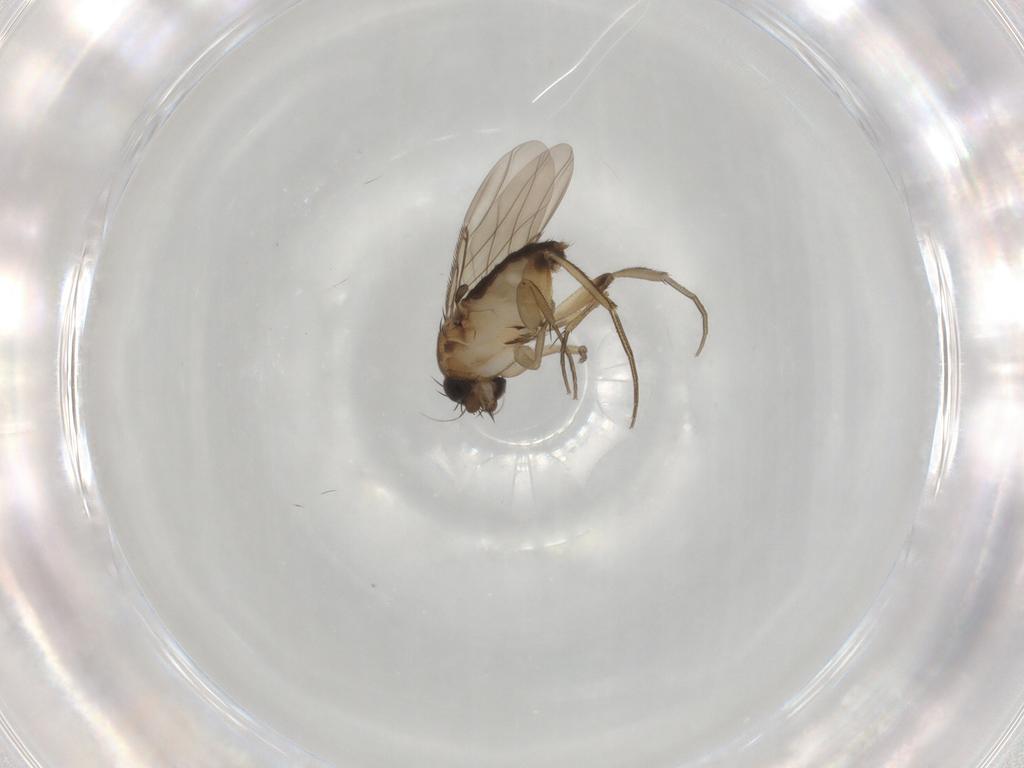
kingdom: Animalia
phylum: Arthropoda
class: Insecta
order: Diptera
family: Phoridae
